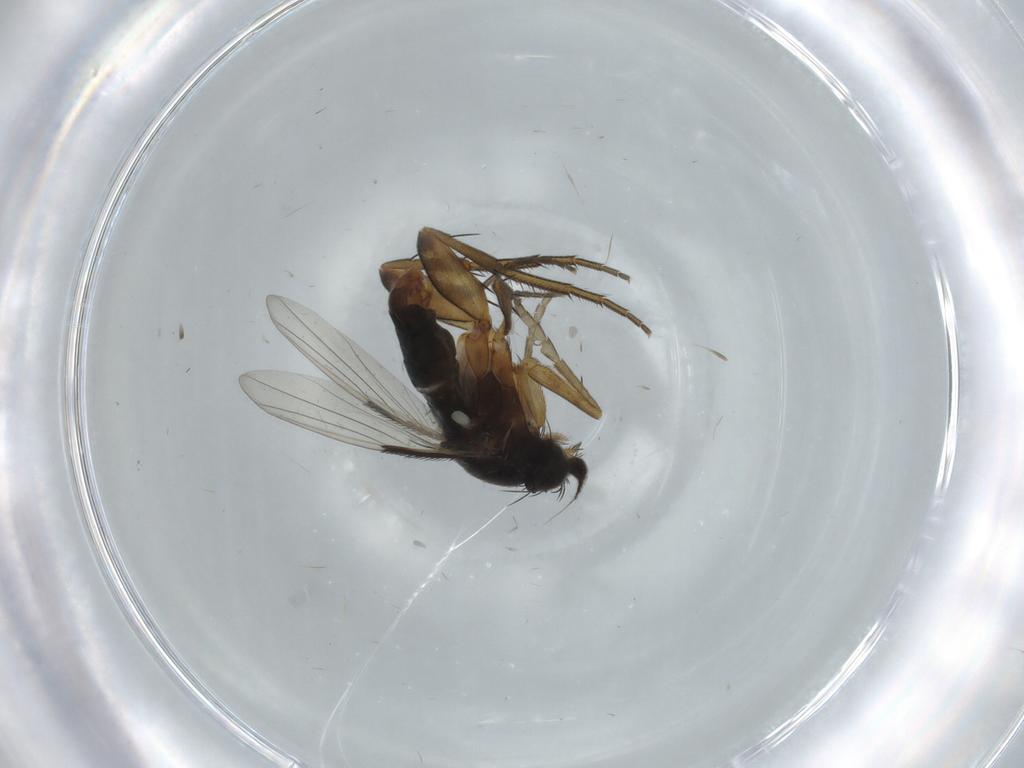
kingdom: Animalia
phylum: Arthropoda
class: Insecta
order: Diptera
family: Phoridae
